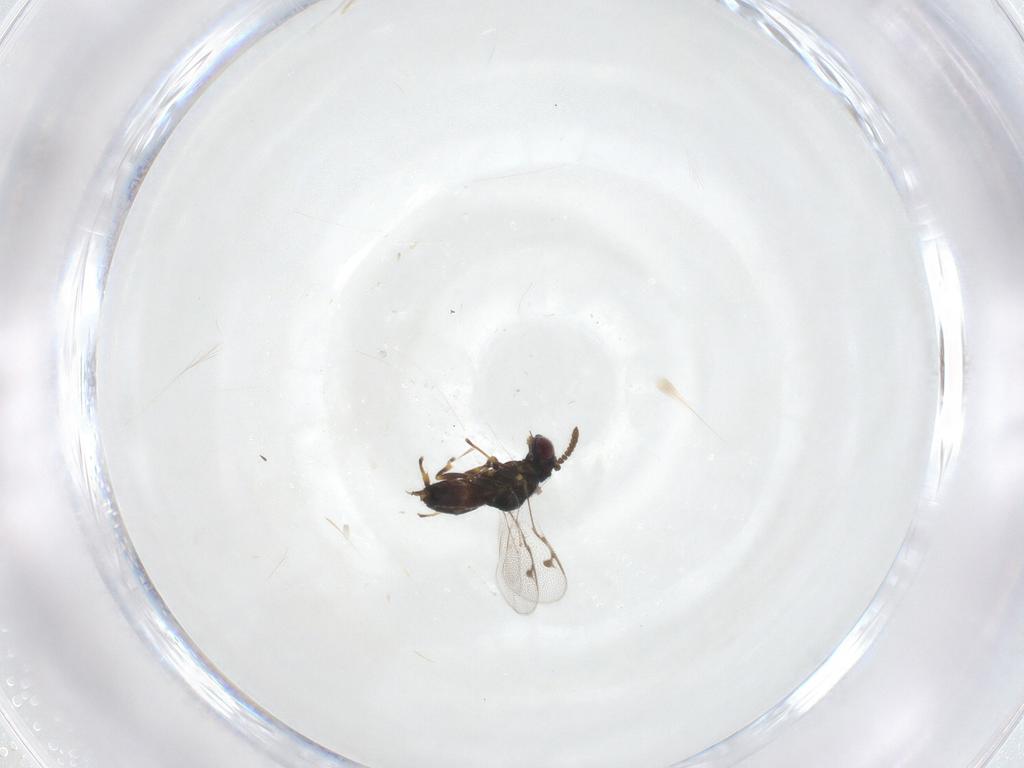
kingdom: Animalia
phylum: Arthropoda
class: Insecta
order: Hymenoptera
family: Pirenidae
